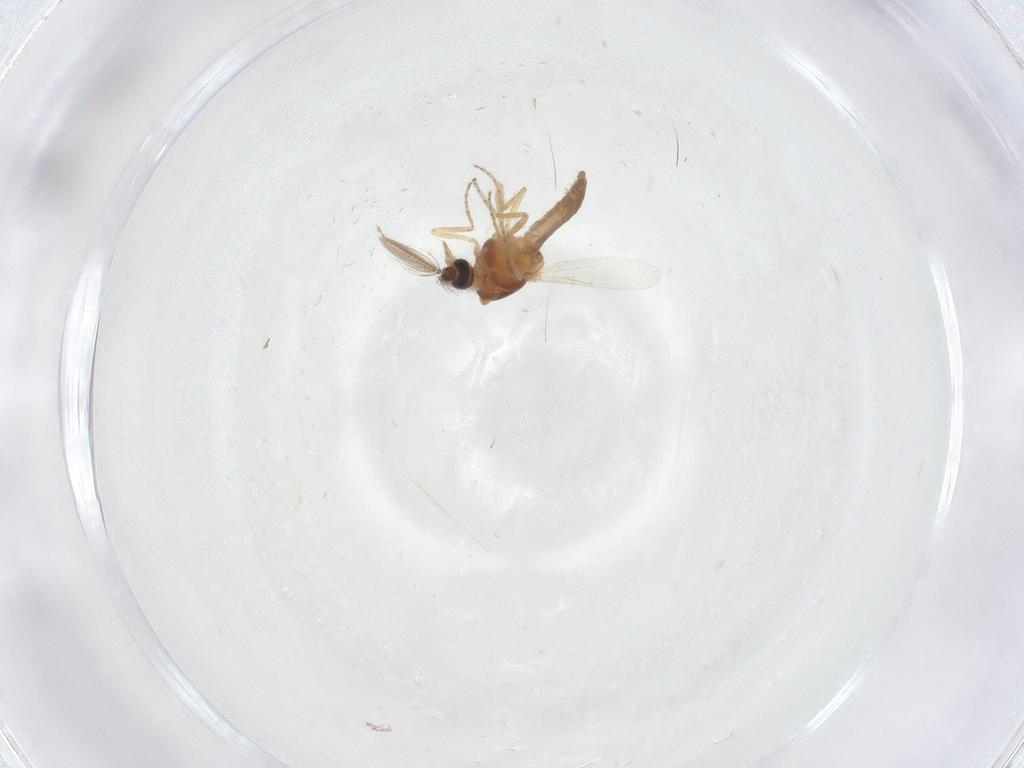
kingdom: Animalia
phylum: Arthropoda
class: Insecta
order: Diptera
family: Ceratopogonidae
